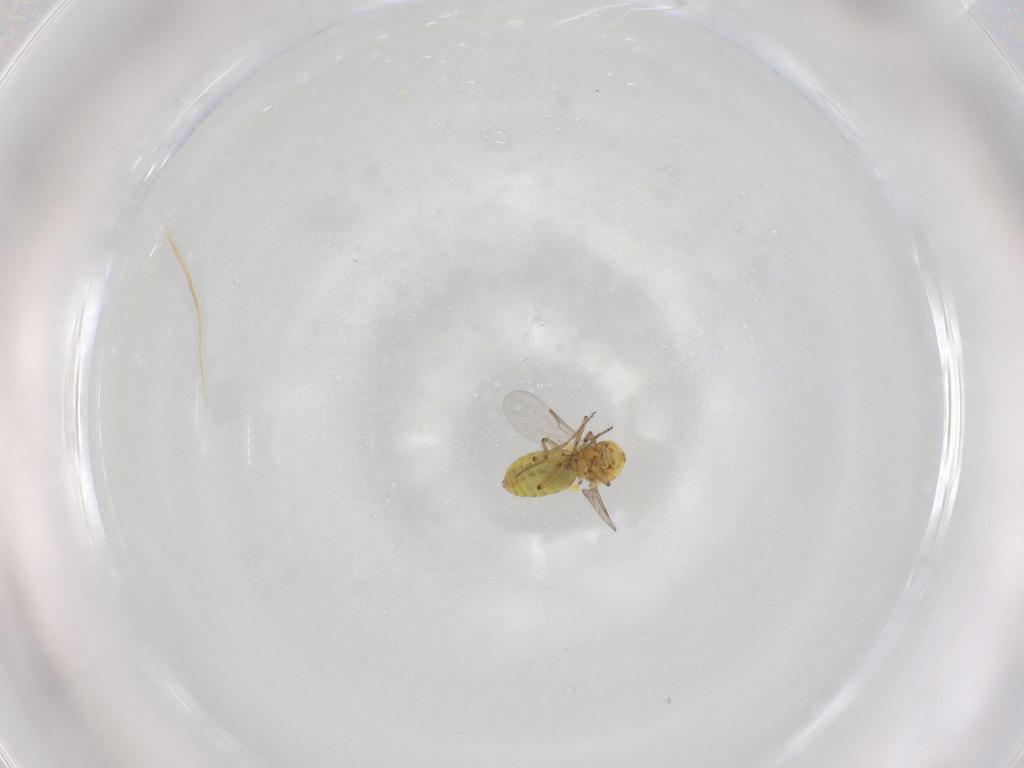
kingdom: Animalia
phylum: Arthropoda
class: Insecta
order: Diptera
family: Ceratopogonidae
